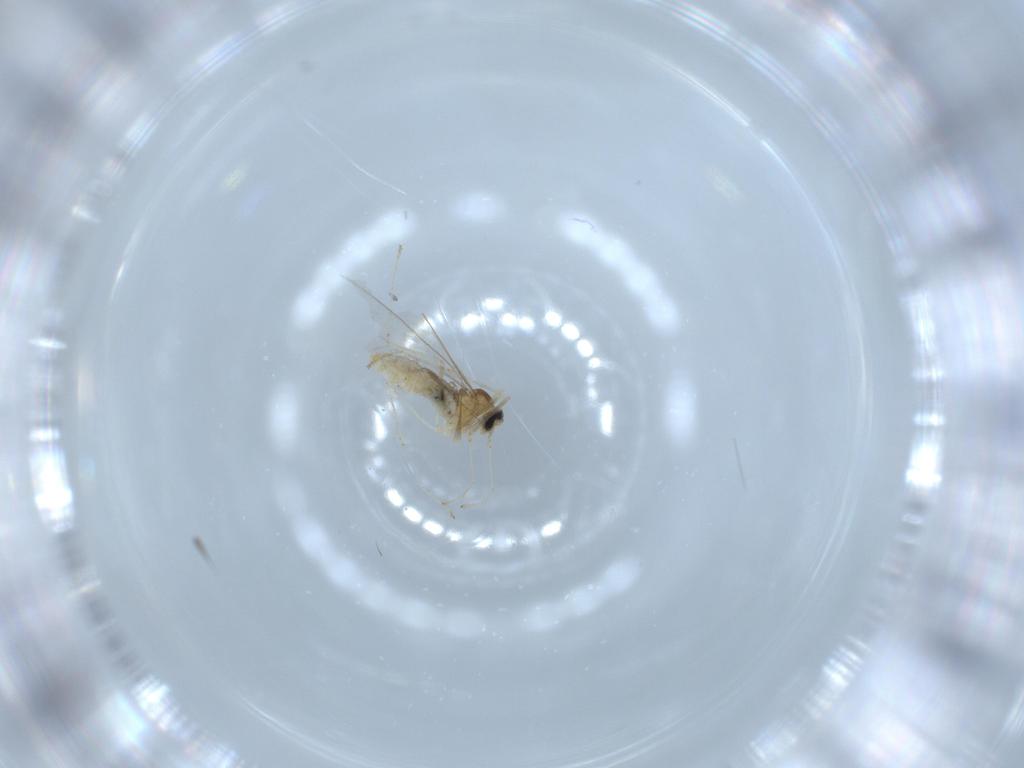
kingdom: Animalia
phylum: Arthropoda
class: Insecta
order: Diptera
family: Cecidomyiidae
